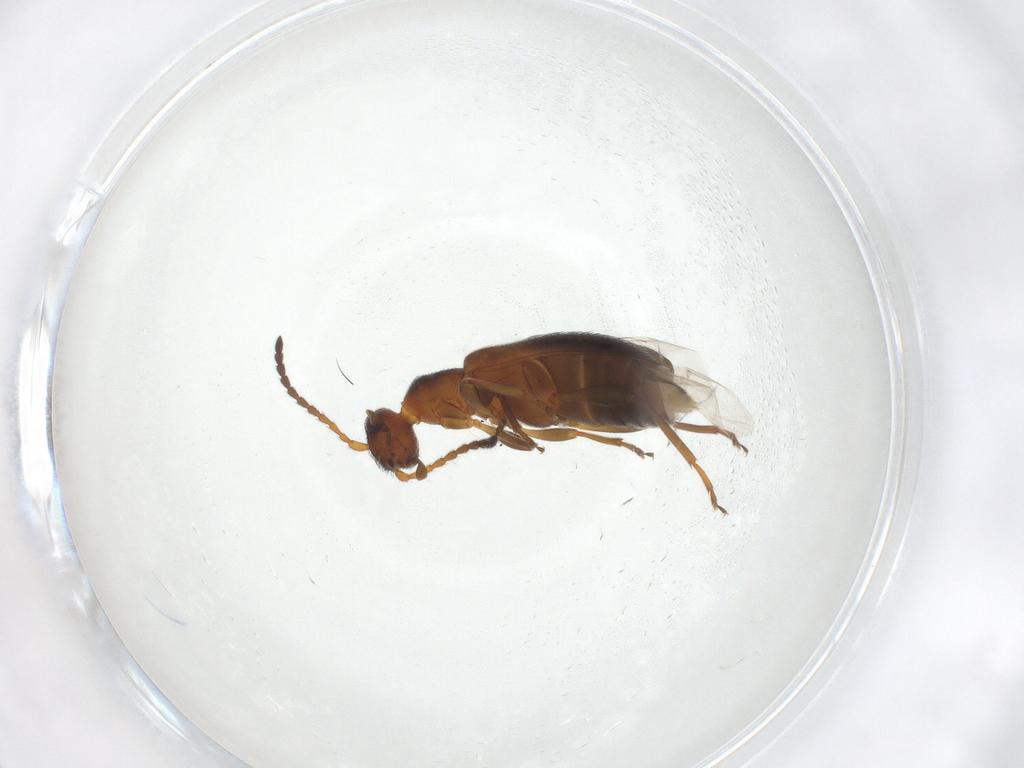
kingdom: Animalia
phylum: Arthropoda
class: Insecta
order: Coleoptera
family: Anthicidae
